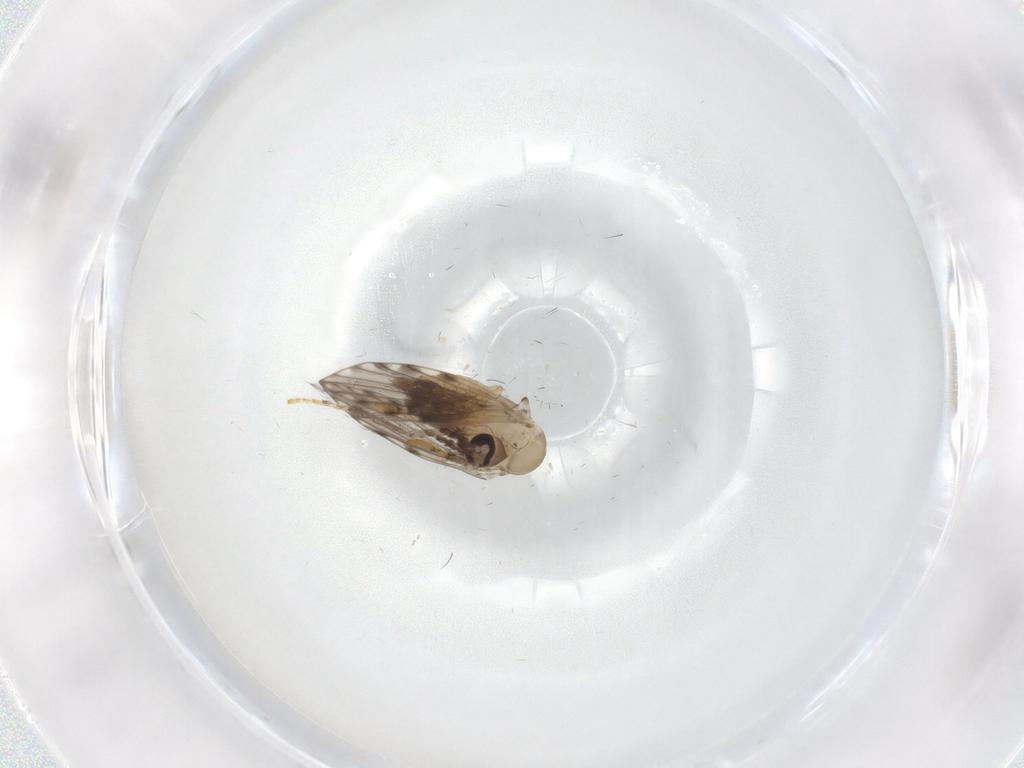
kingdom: Animalia
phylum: Arthropoda
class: Insecta
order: Diptera
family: Psychodidae
